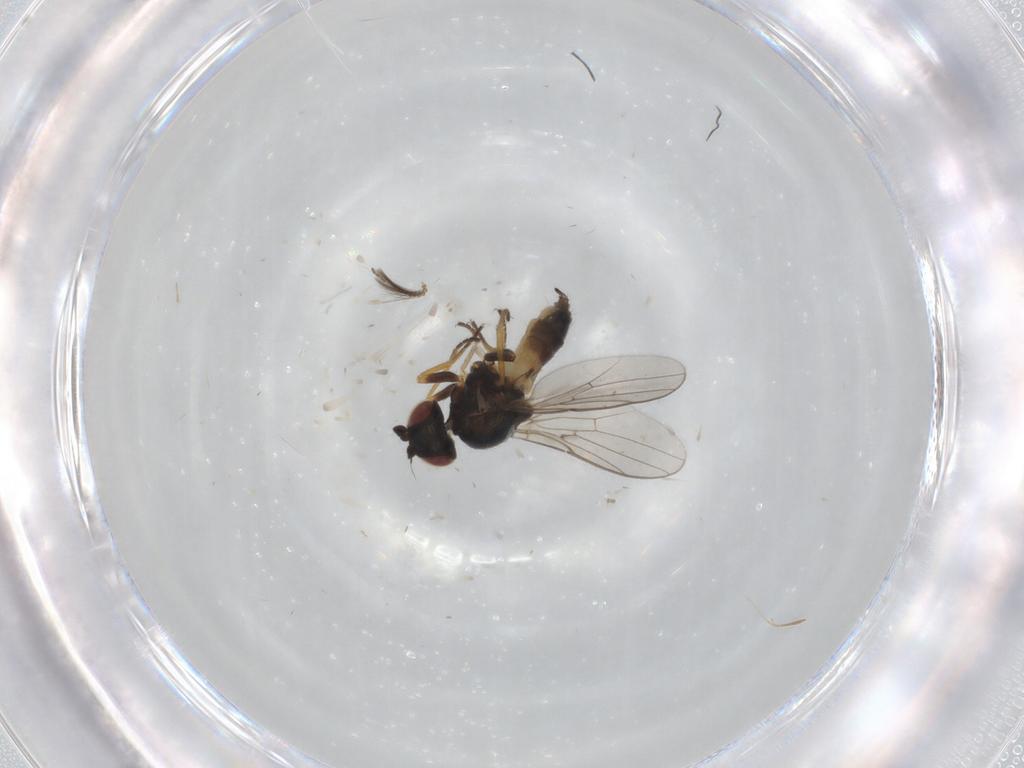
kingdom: Animalia
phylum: Arthropoda
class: Insecta
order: Diptera
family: Chloropidae
